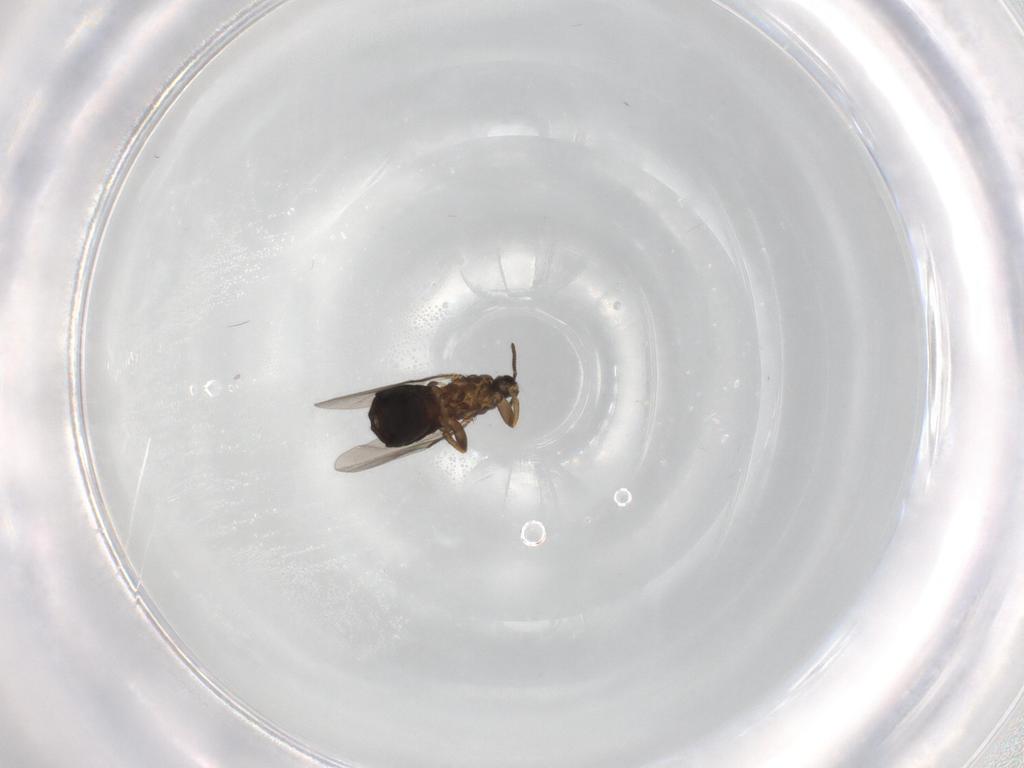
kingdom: Animalia
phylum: Arthropoda
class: Insecta
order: Diptera
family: Scatopsidae
